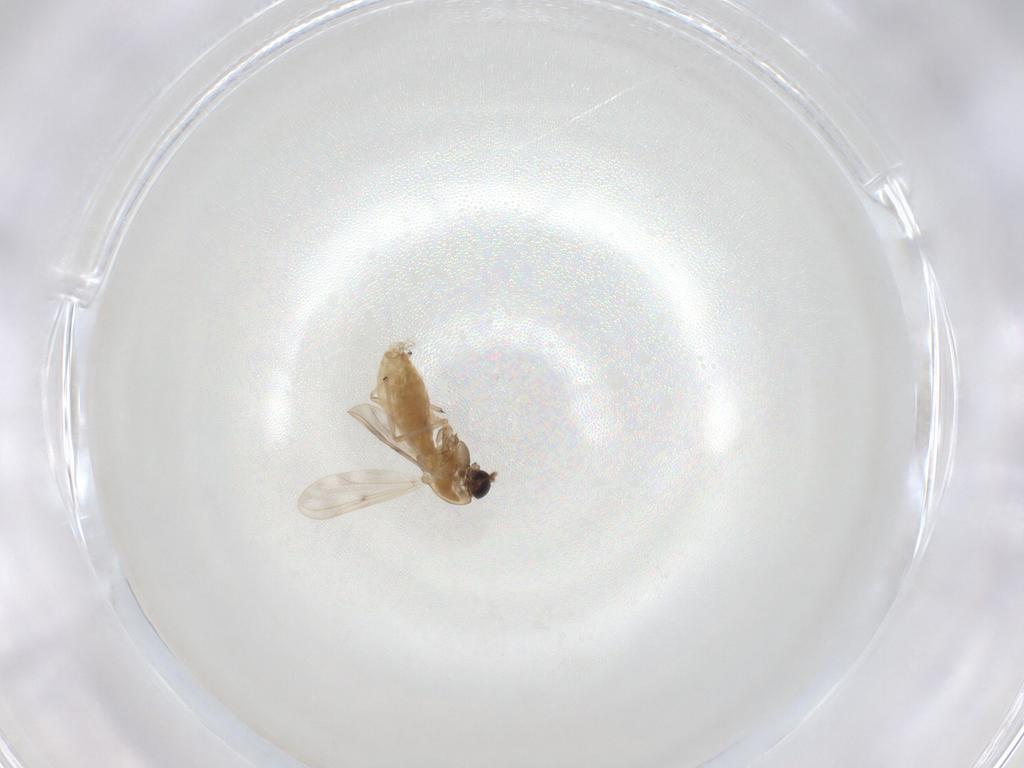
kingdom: Animalia
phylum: Arthropoda
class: Insecta
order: Diptera
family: Chironomidae
